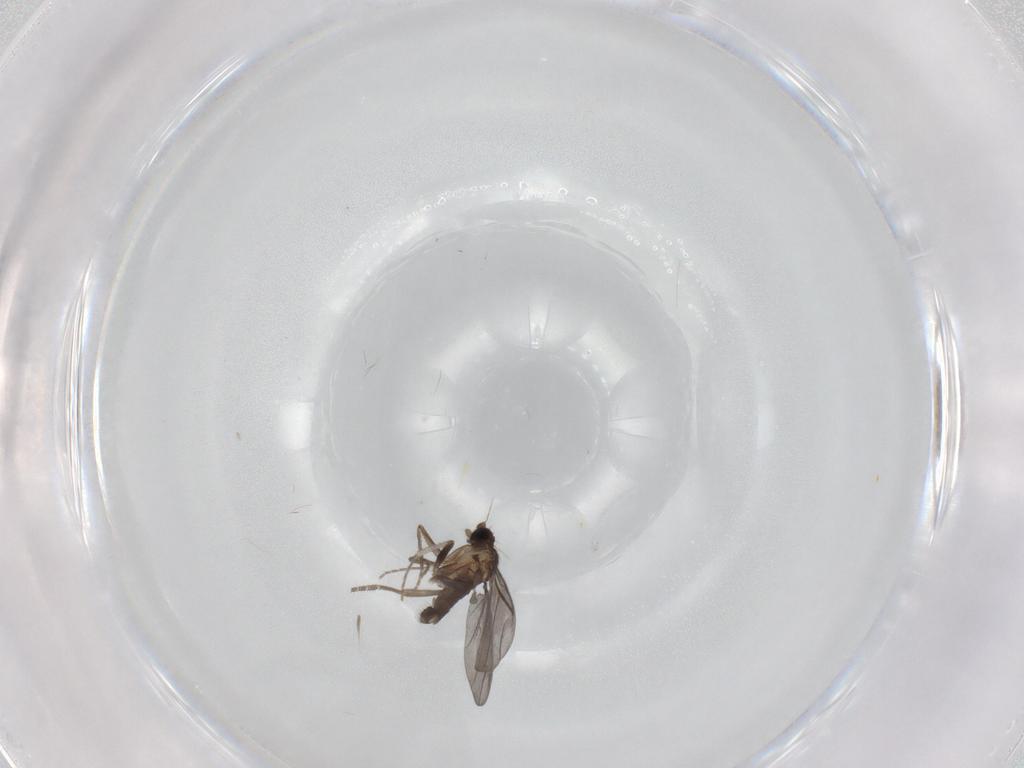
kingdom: Animalia
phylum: Arthropoda
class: Insecta
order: Diptera
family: Phoridae
